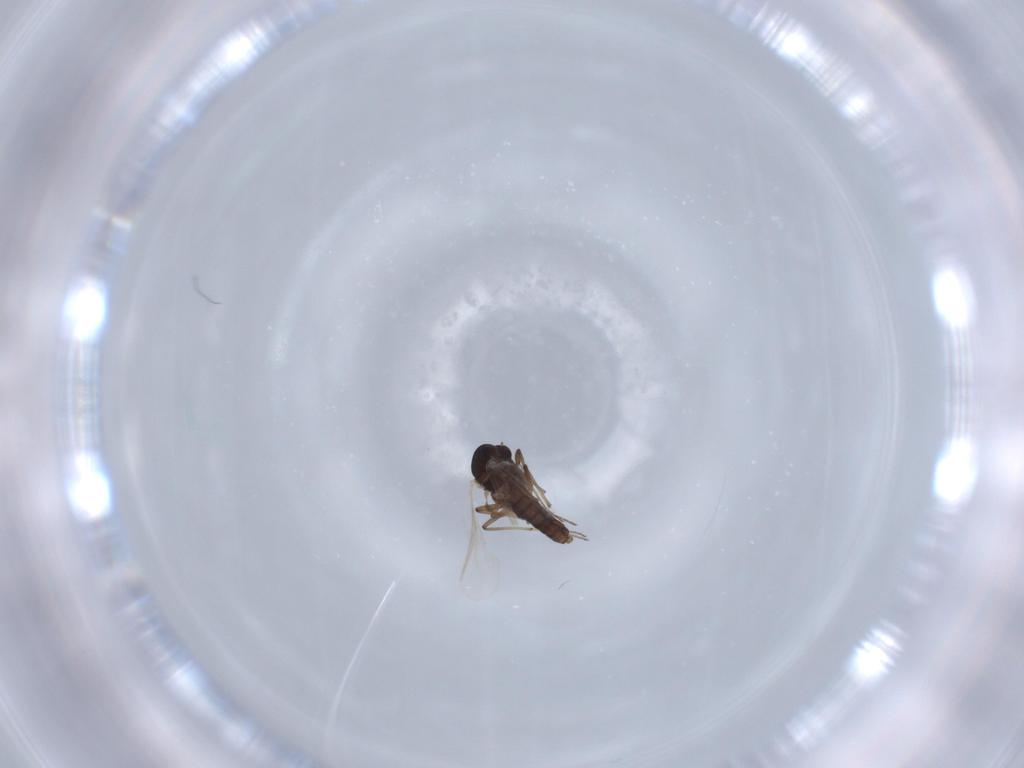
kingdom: Animalia
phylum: Arthropoda
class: Insecta
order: Diptera
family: Chironomidae
